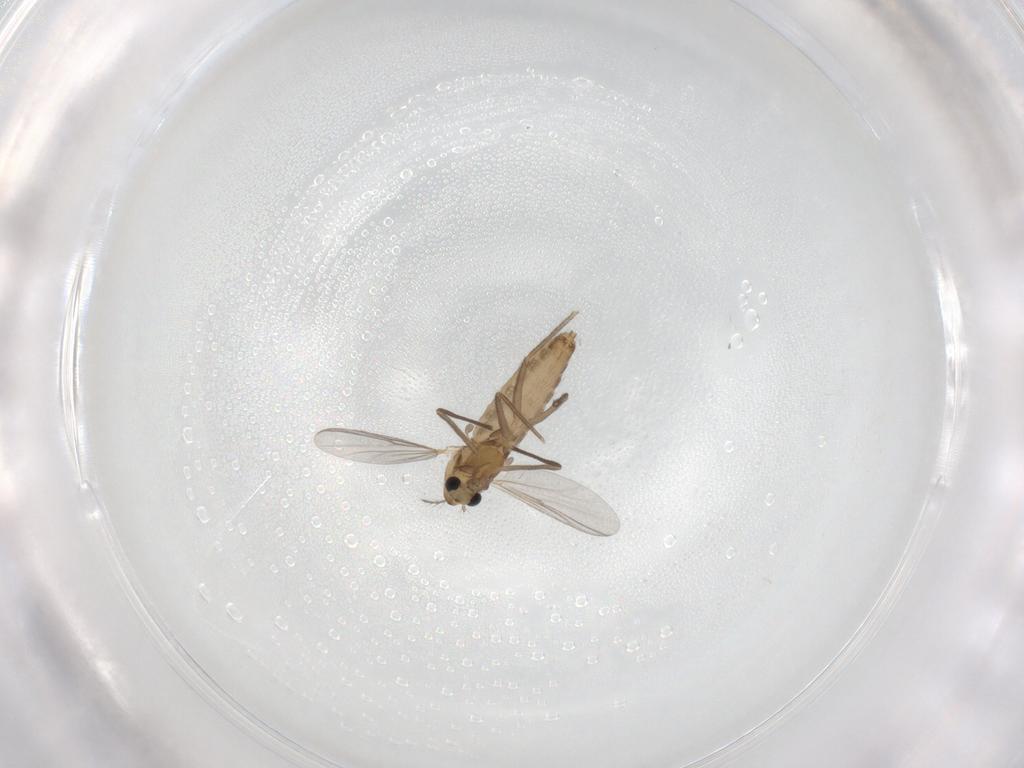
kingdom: Animalia
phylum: Arthropoda
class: Insecta
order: Diptera
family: Chironomidae
